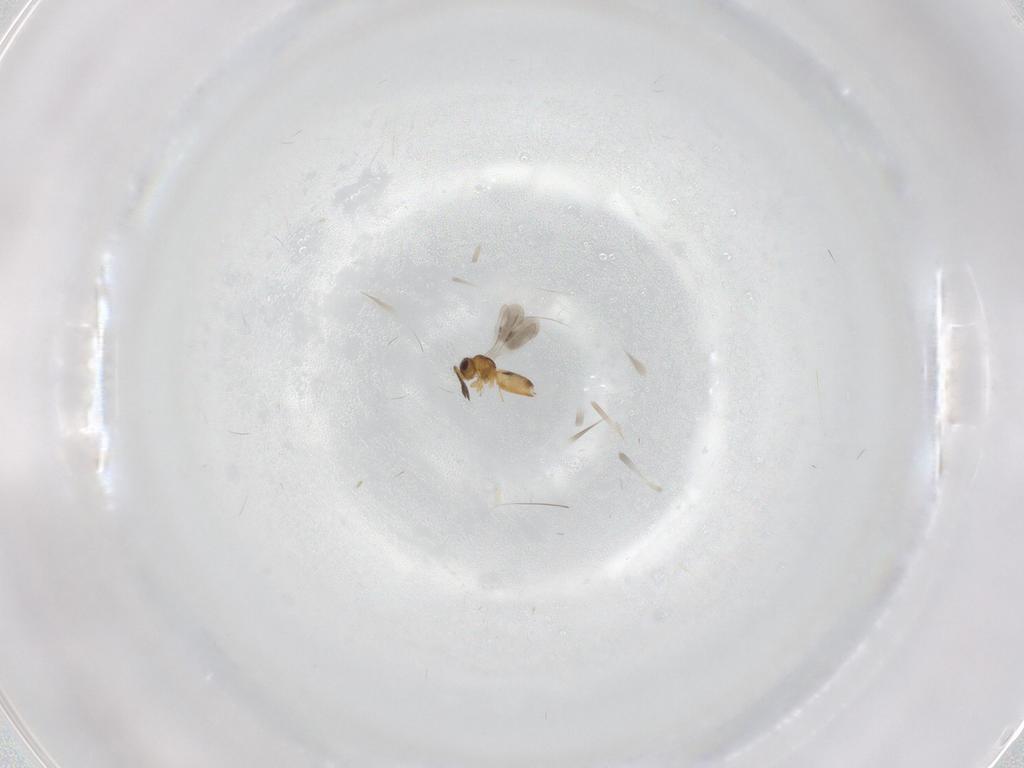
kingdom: Animalia
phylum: Arthropoda
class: Insecta
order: Hymenoptera
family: Ceraphronidae
